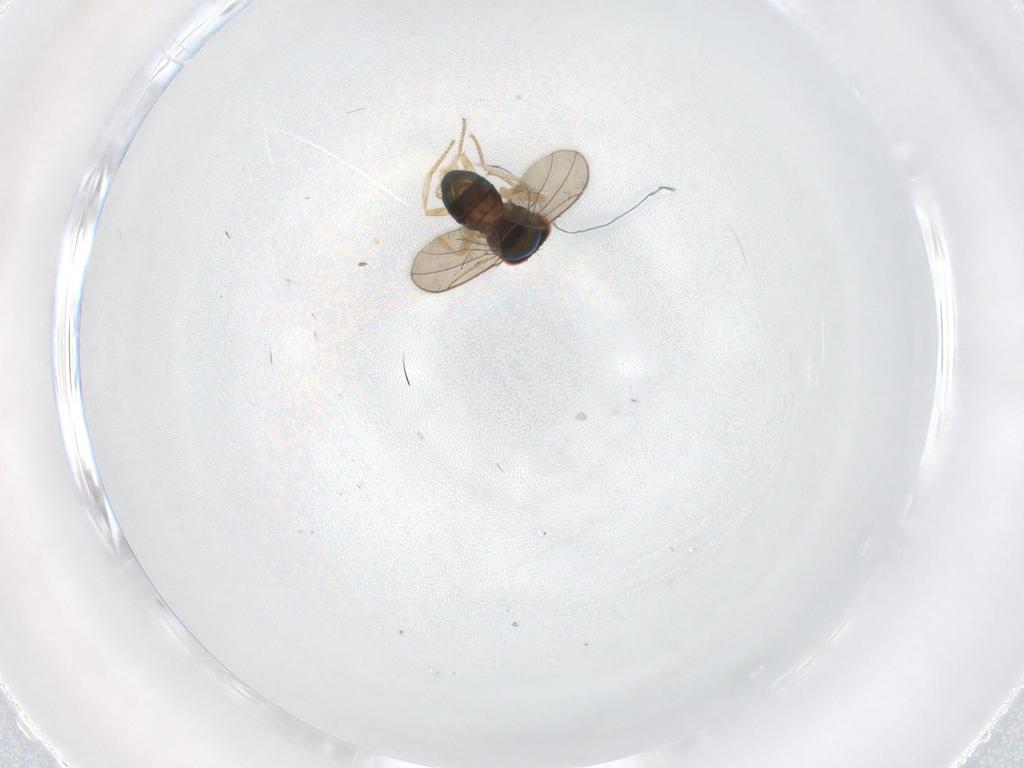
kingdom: Animalia
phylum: Arthropoda
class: Insecta
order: Diptera
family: Drosophilidae
